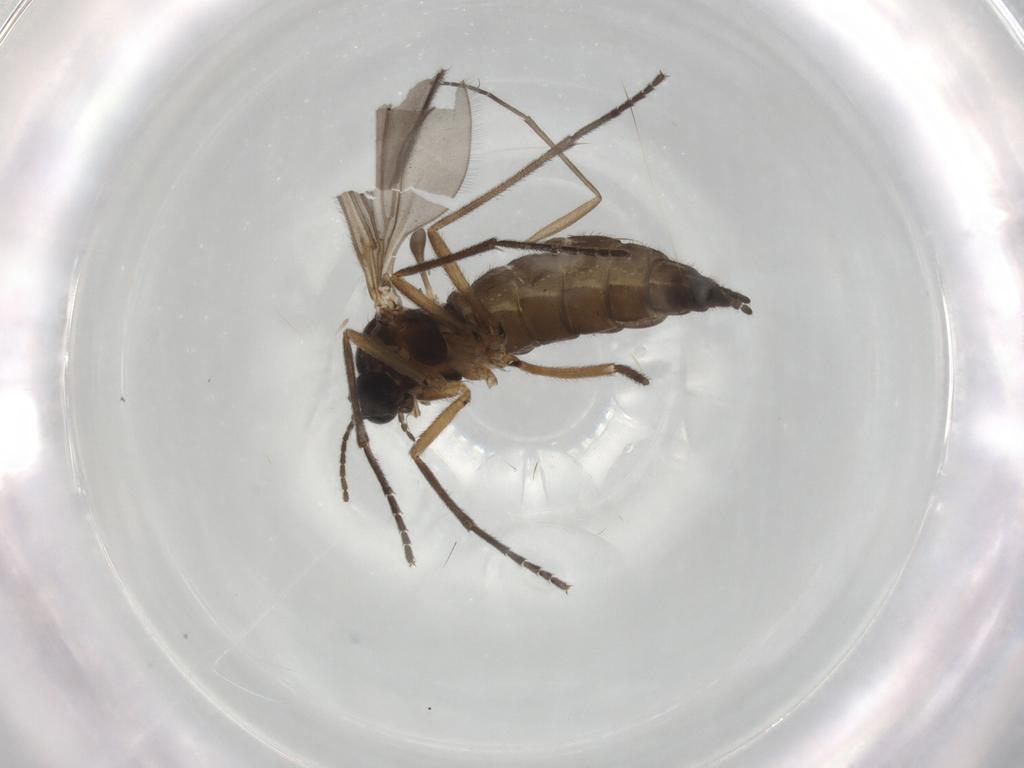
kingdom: Animalia
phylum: Arthropoda
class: Insecta
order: Diptera
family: Sciaridae
